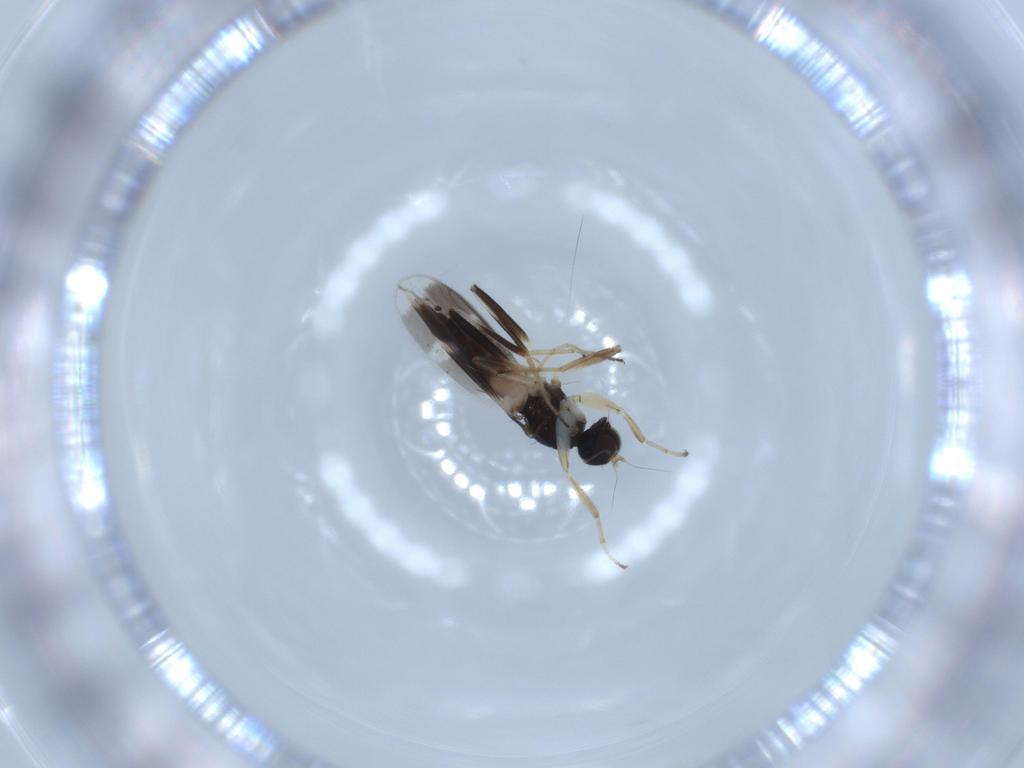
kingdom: Animalia
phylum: Arthropoda
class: Insecta
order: Diptera
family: Hybotidae
